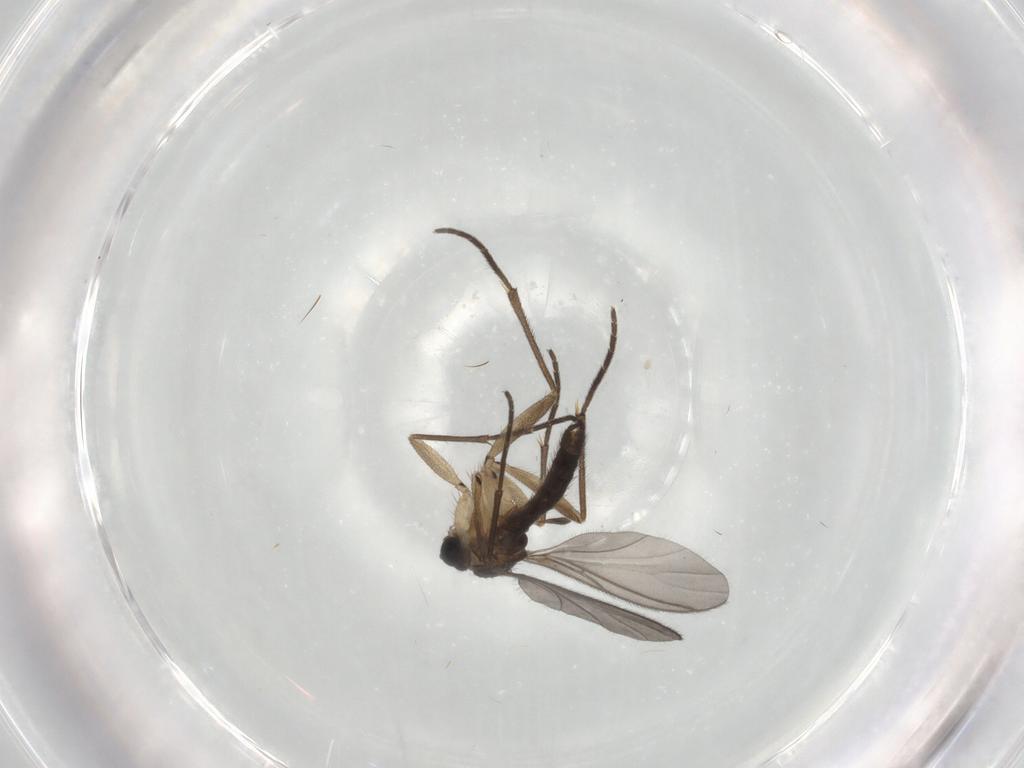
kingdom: Animalia
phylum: Arthropoda
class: Insecta
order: Diptera
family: Sciaridae
